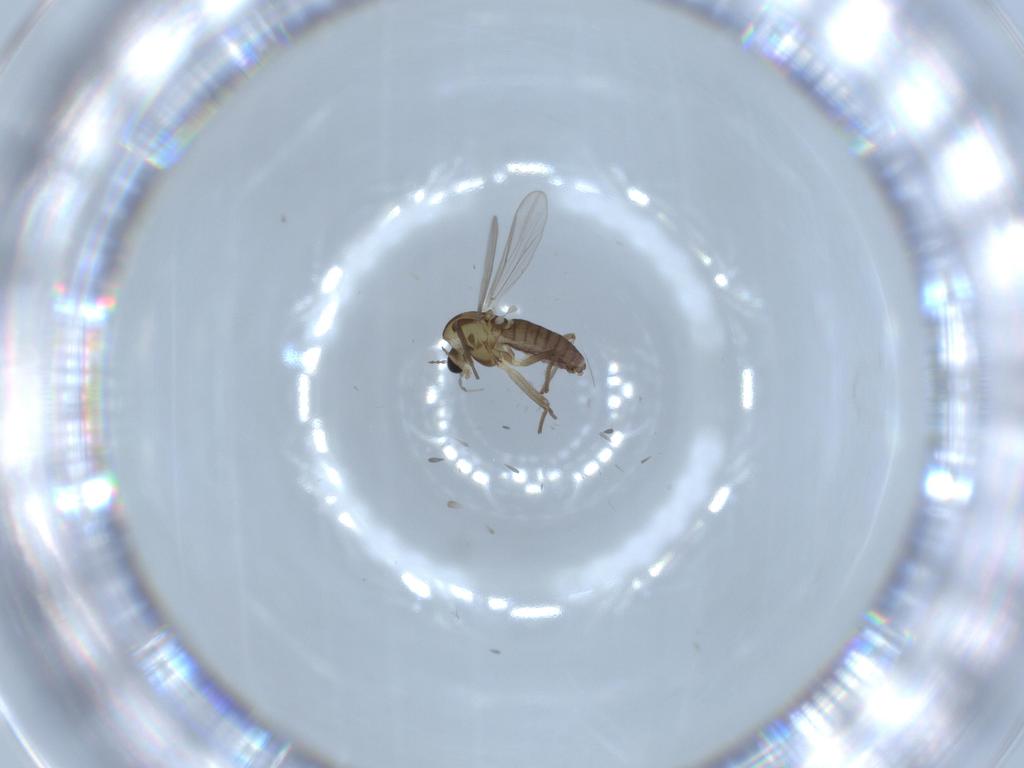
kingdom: Animalia
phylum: Arthropoda
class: Insecta
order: Diptera
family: Chironomidae
